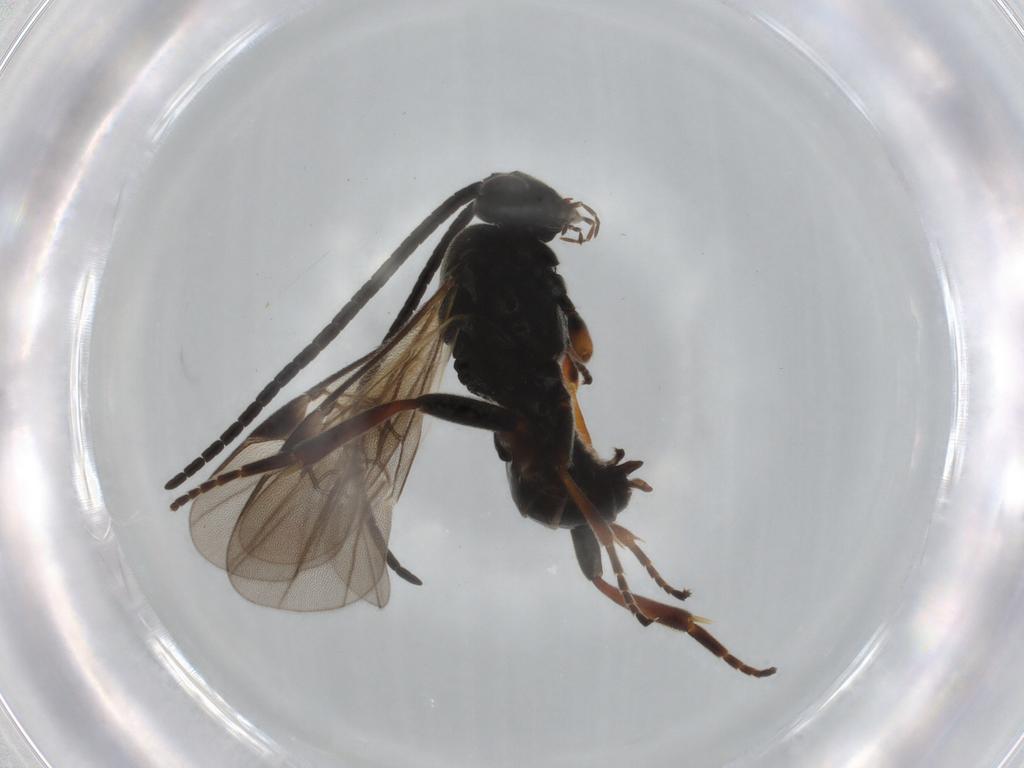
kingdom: Animalia
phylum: Arthropoda
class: Insecta
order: Hymenoptera
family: Braconidae
